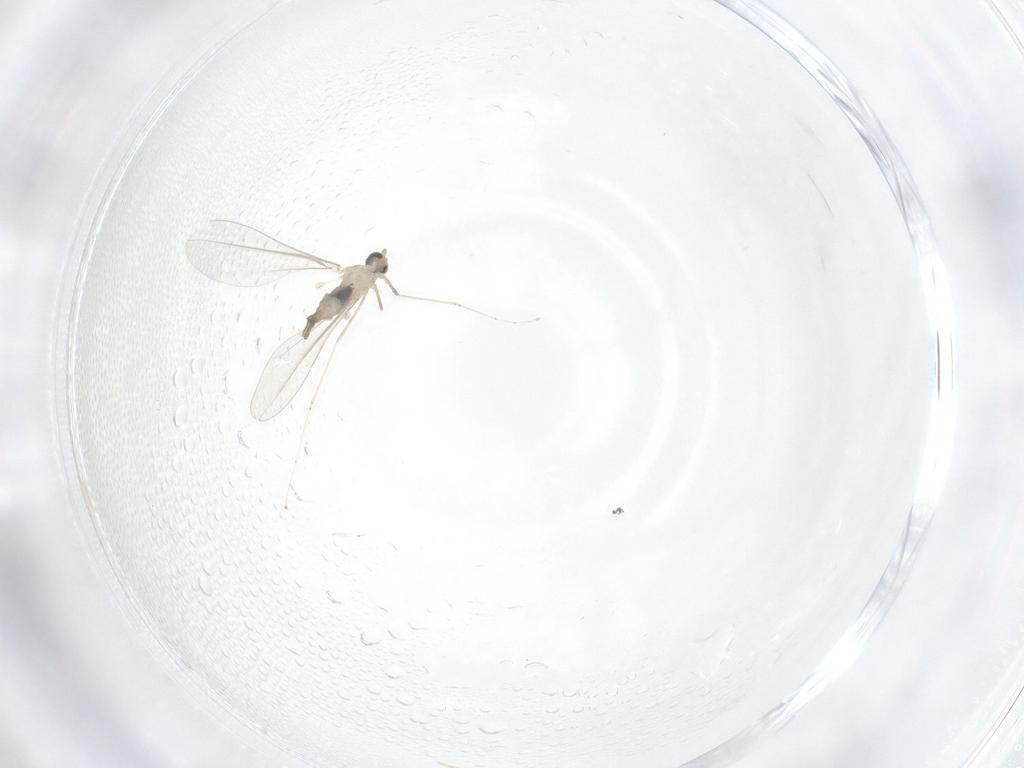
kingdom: Animalia
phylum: Arthropoda
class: Insecta
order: Diptera
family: Cecidomyiidae
